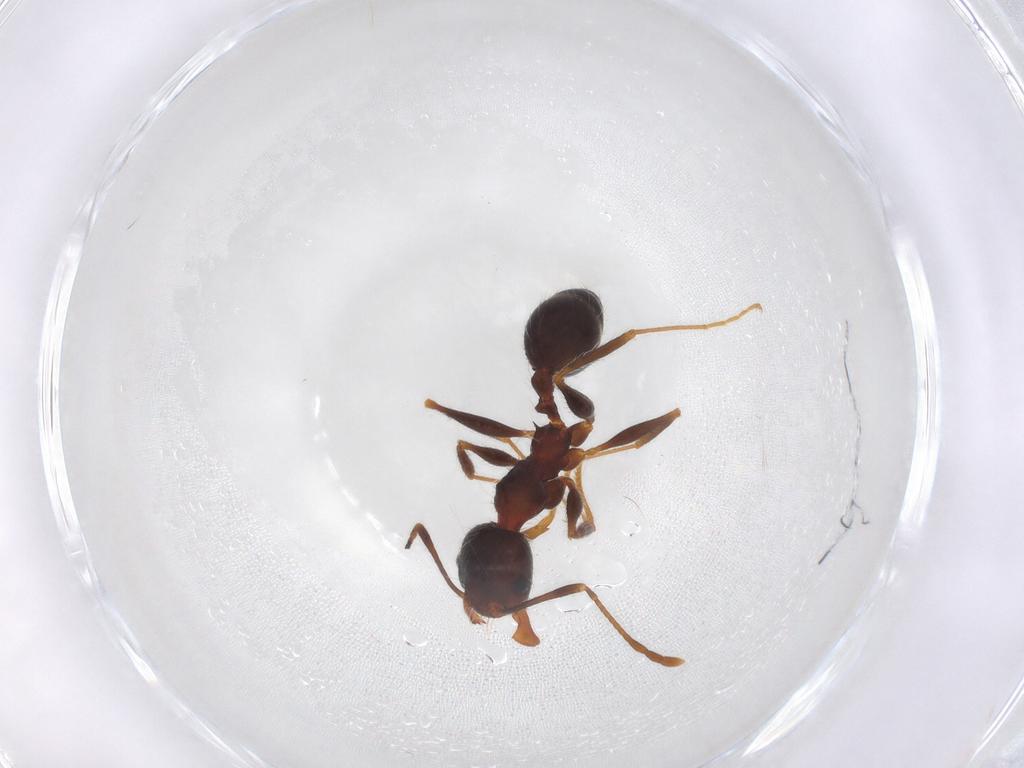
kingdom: Animalia
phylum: Arthropoda
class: Insecta
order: Hymenoptera
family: Formicidae
